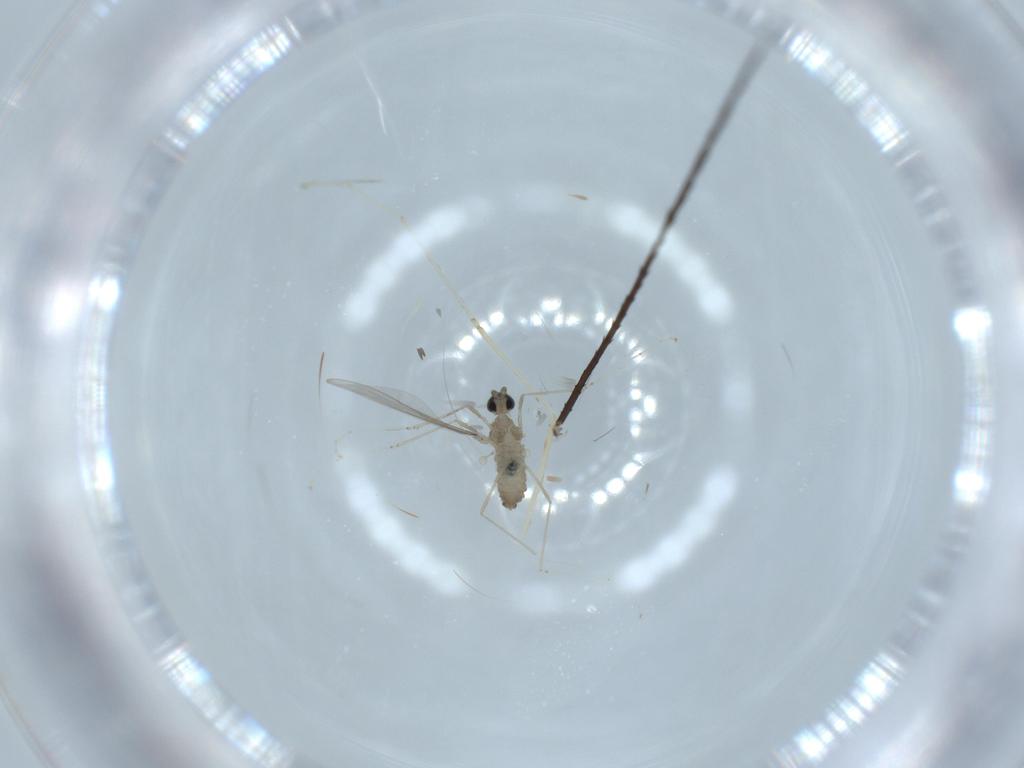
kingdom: Animalia
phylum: Arthropoda
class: Insecta
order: Diptera
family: Cecidomyiidae
